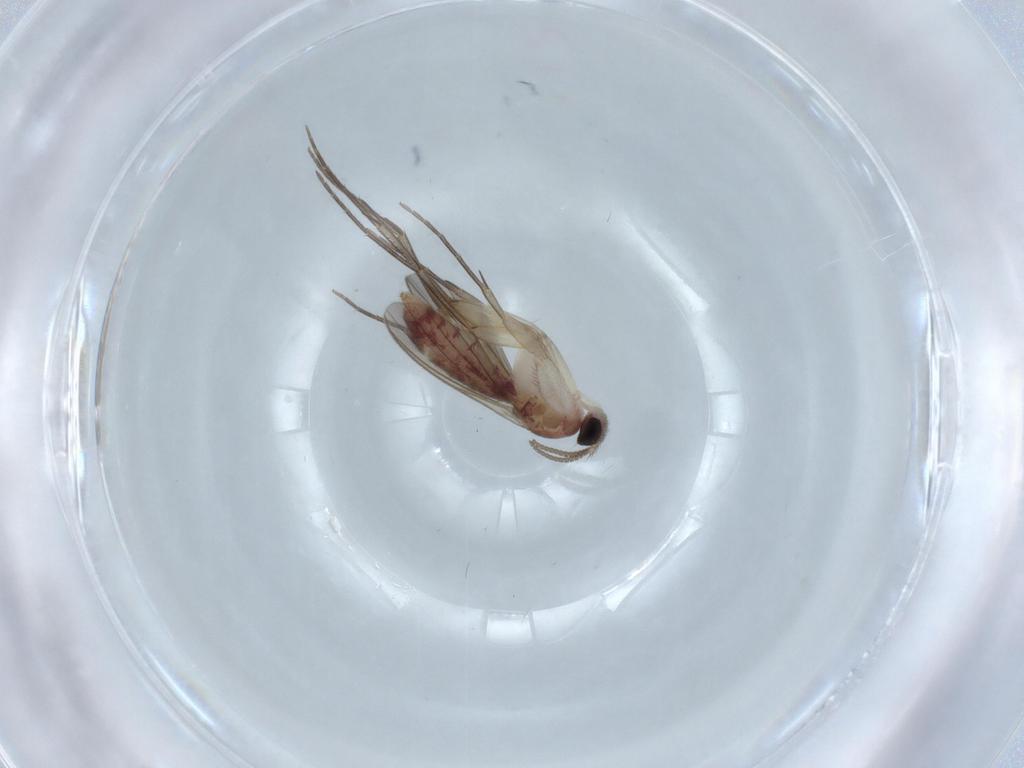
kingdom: Animalia
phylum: Arthropoda
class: Insecta
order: Diptera
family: Mycetophilidae
